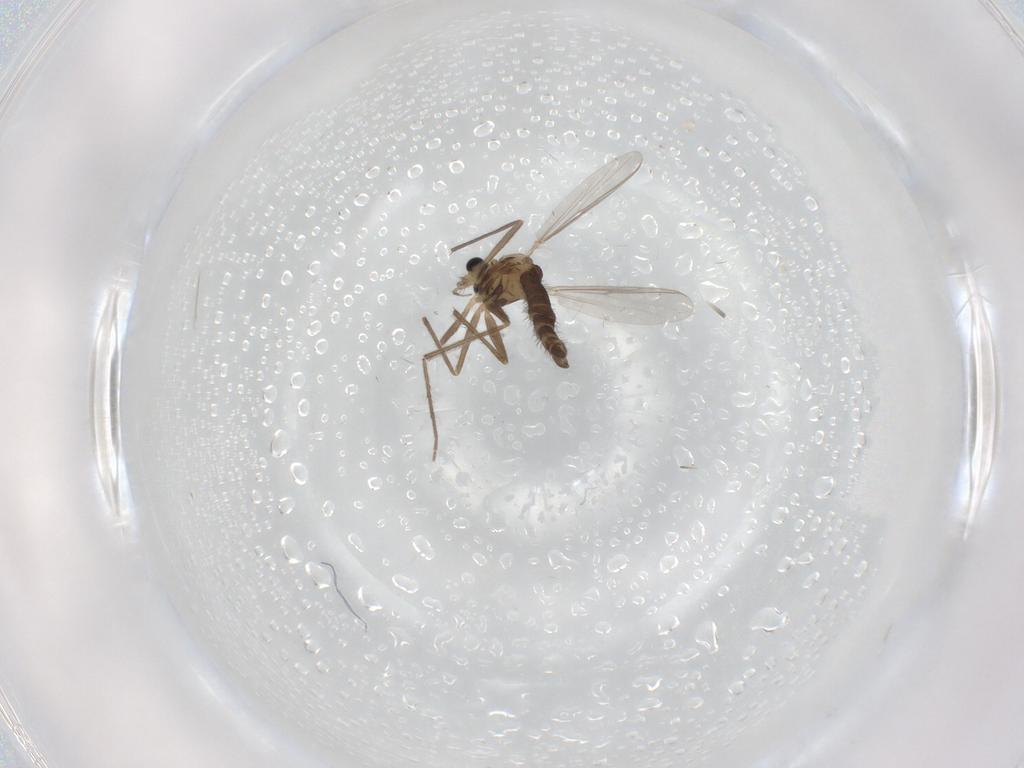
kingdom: Animalia
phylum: Arthropoda
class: Insecta
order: Diptera
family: Chironomidae
